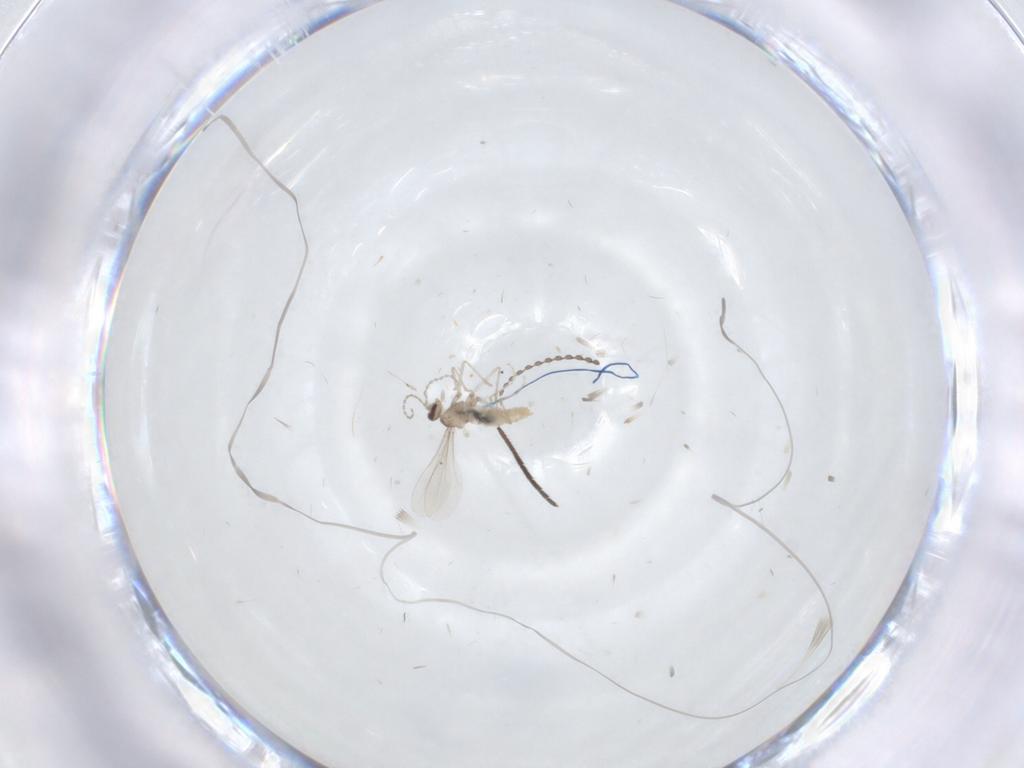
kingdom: Animalia
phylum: Arthropoda
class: Insecta
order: Diptera
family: Cecidomyiidae
